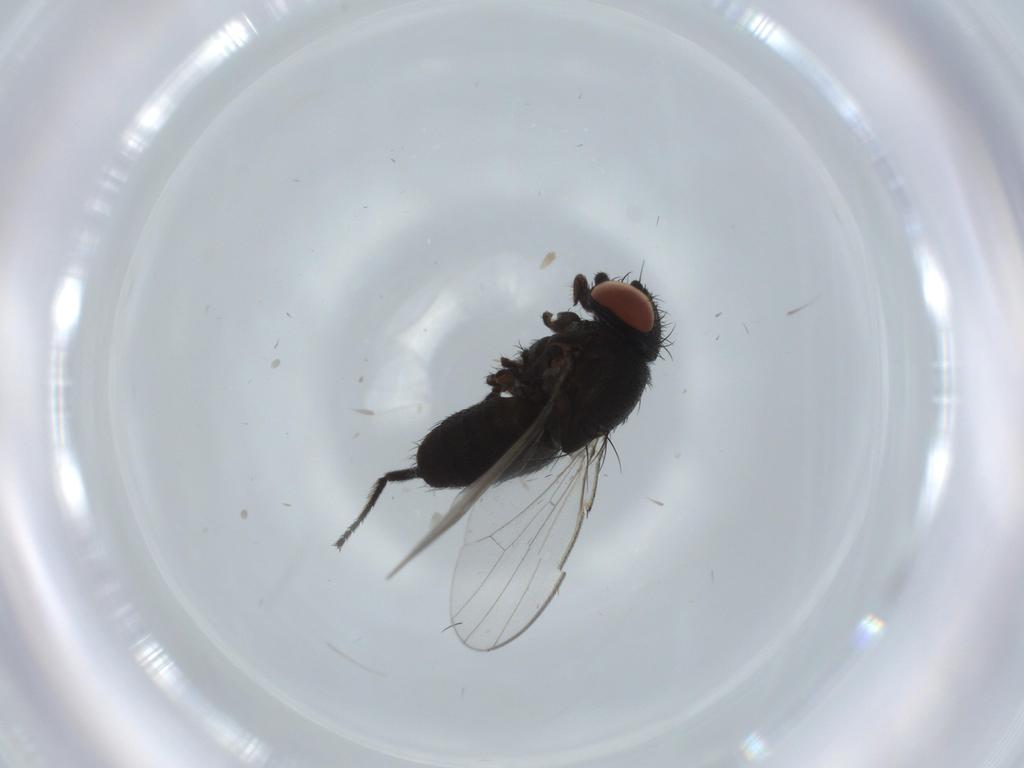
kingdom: Animalia
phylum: Arthropoda
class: Insecta
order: Diptera
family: Milichiidae
